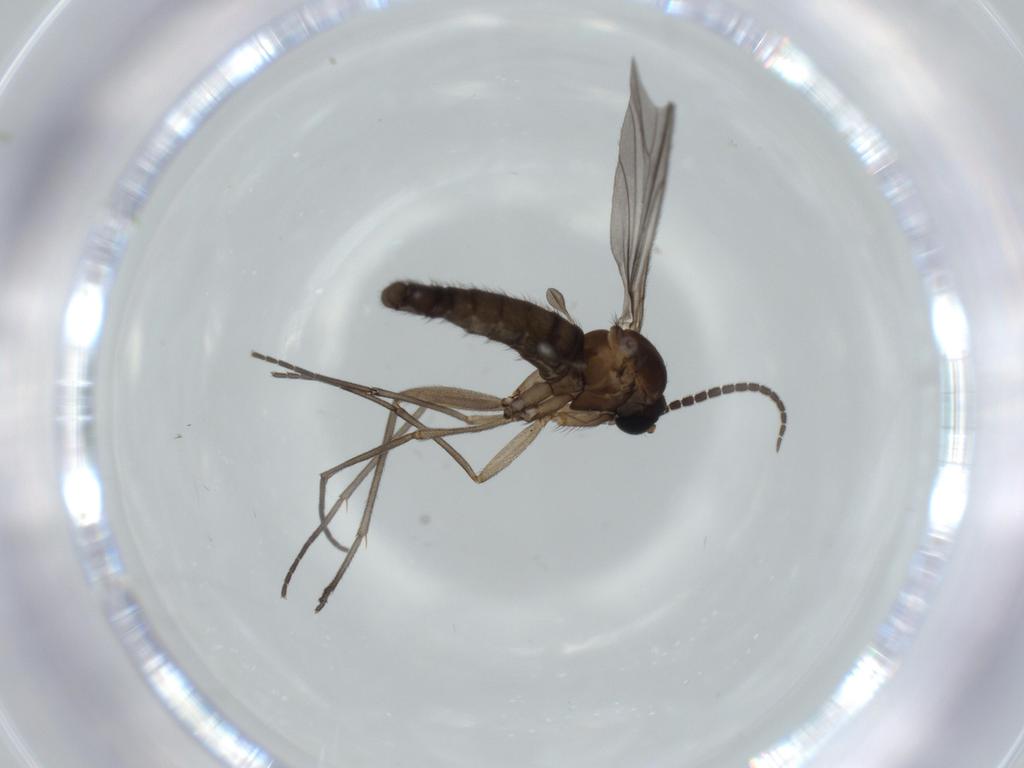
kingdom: Animalia
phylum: Arthropoda
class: Insecta
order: Diptera
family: Sciaridae
